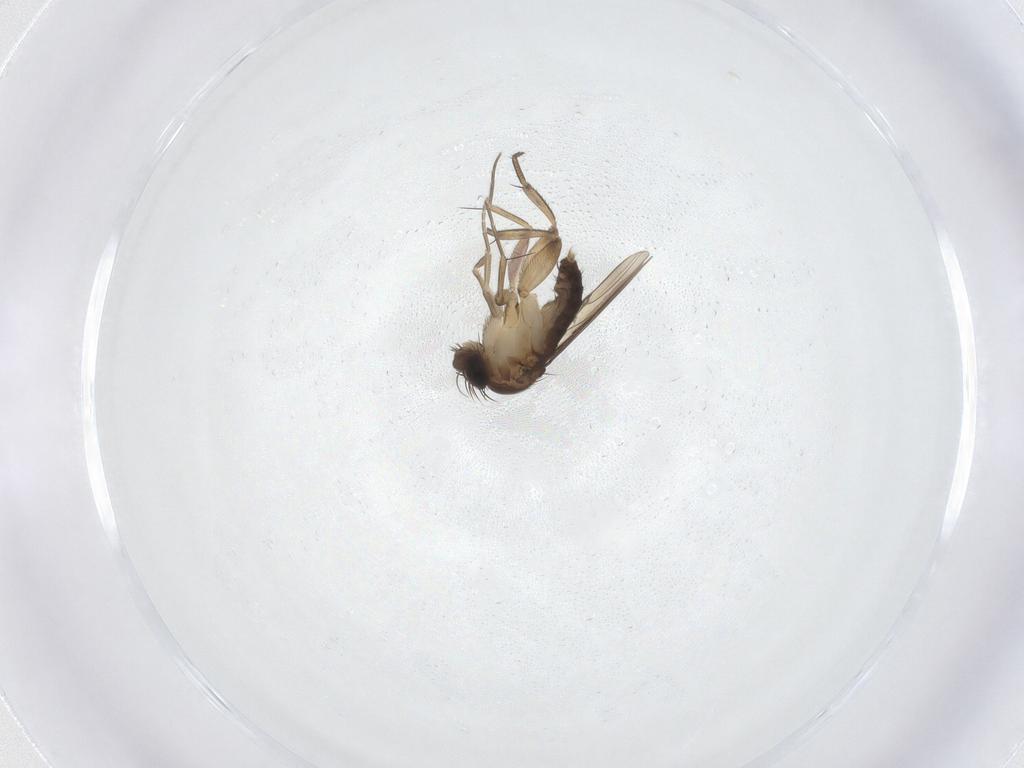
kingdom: Animalia
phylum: Arthropoda
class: Insecta
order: Diptera
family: Phoridae
